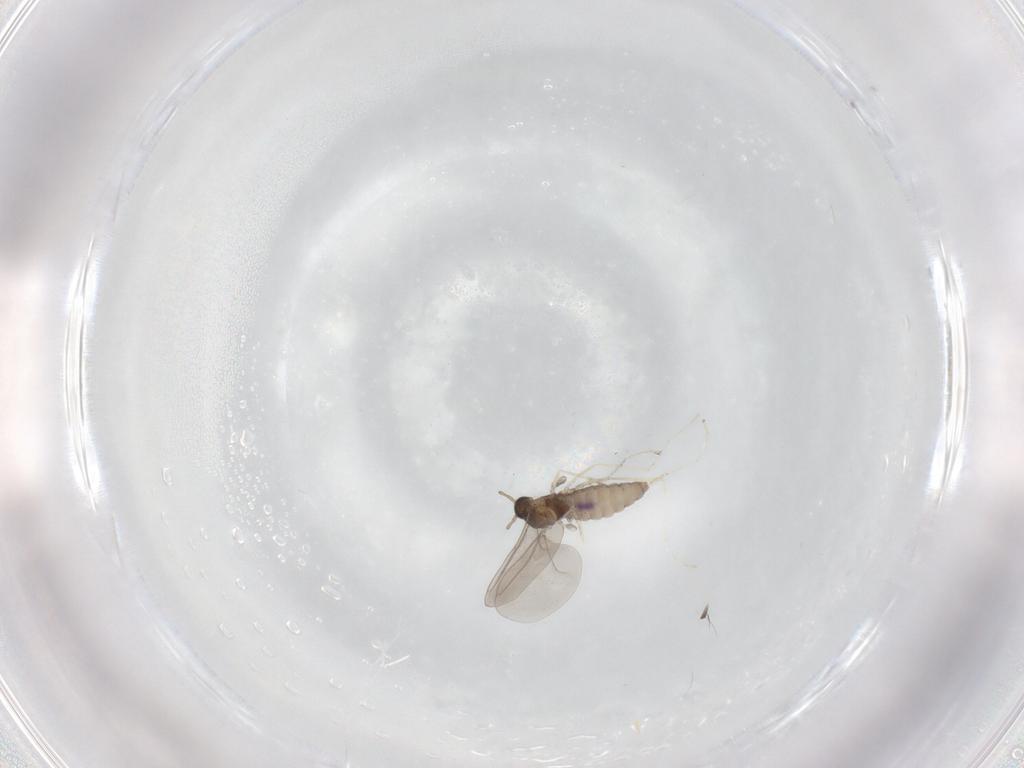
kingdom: Animalia
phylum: Arthropoda
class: Insecta
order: Diptera
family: Cecidomyiidae
